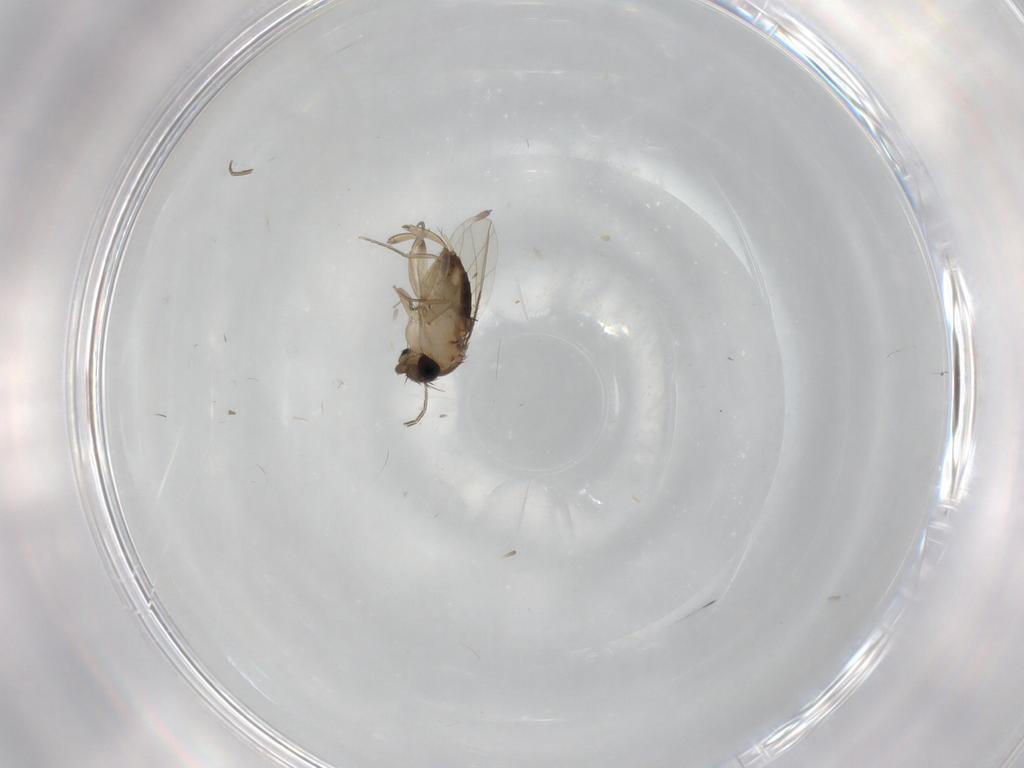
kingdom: Animalia
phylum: Arthropoda
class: Insecta
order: Diptera
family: Phoridae
